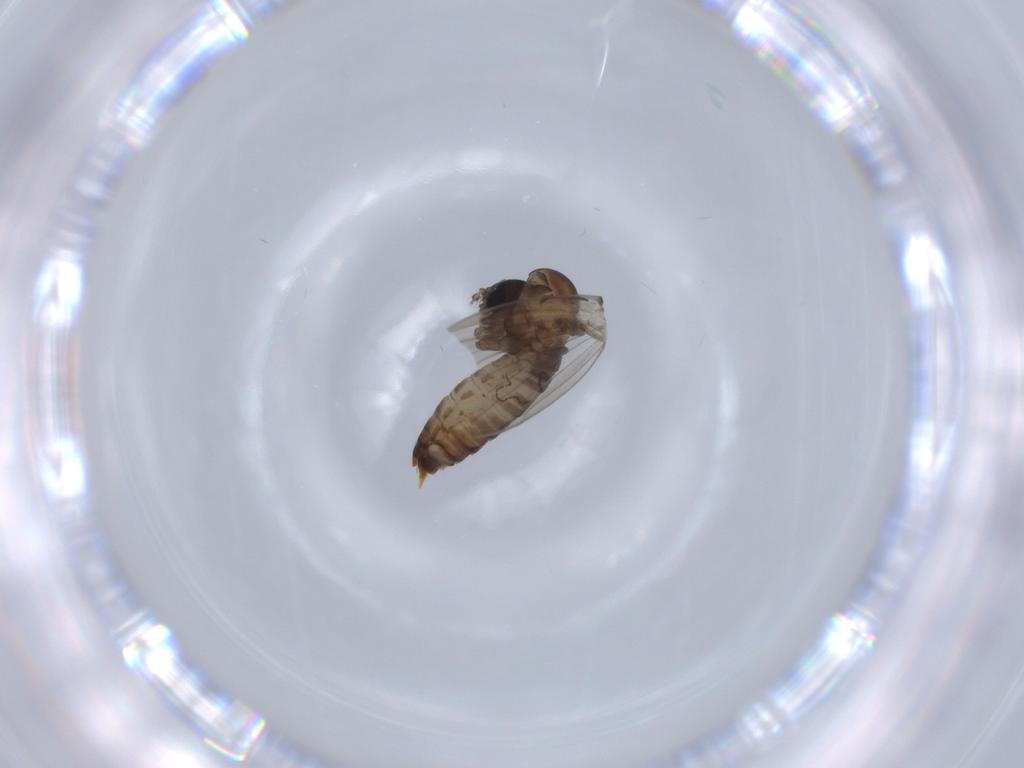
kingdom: Animalia
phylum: Arthropoda
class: Insecta
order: Diptera
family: Psychodidae
